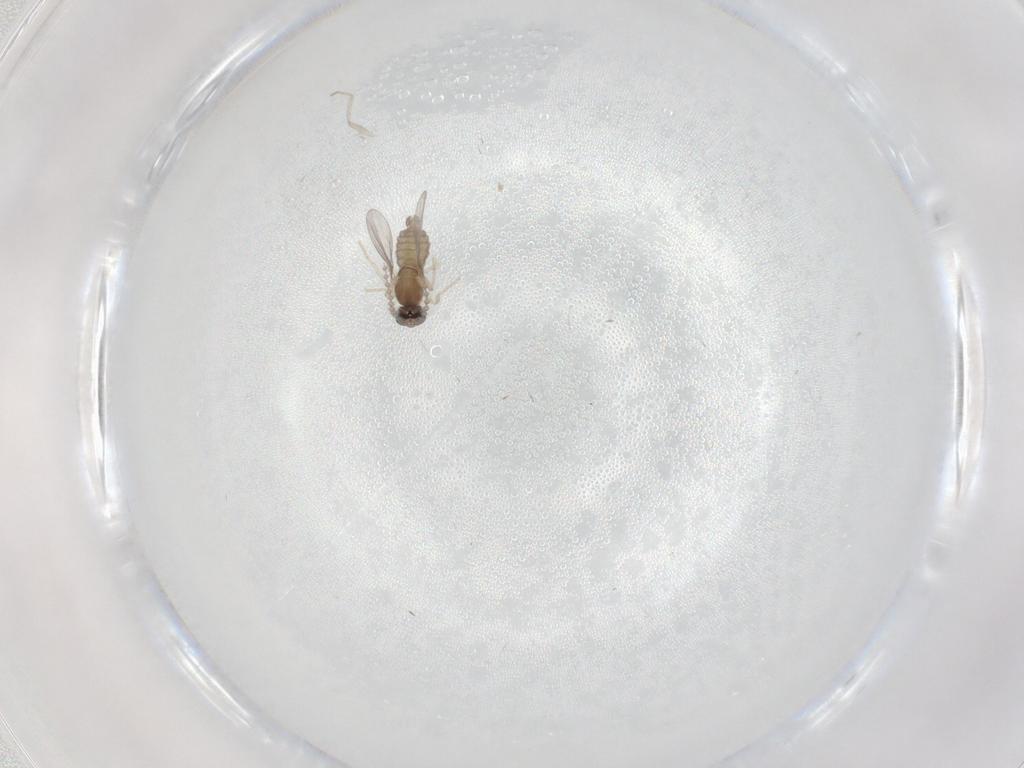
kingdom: Animalia
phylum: Arthropoda
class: Insecta
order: Diptera
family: Cecidomyiidae
